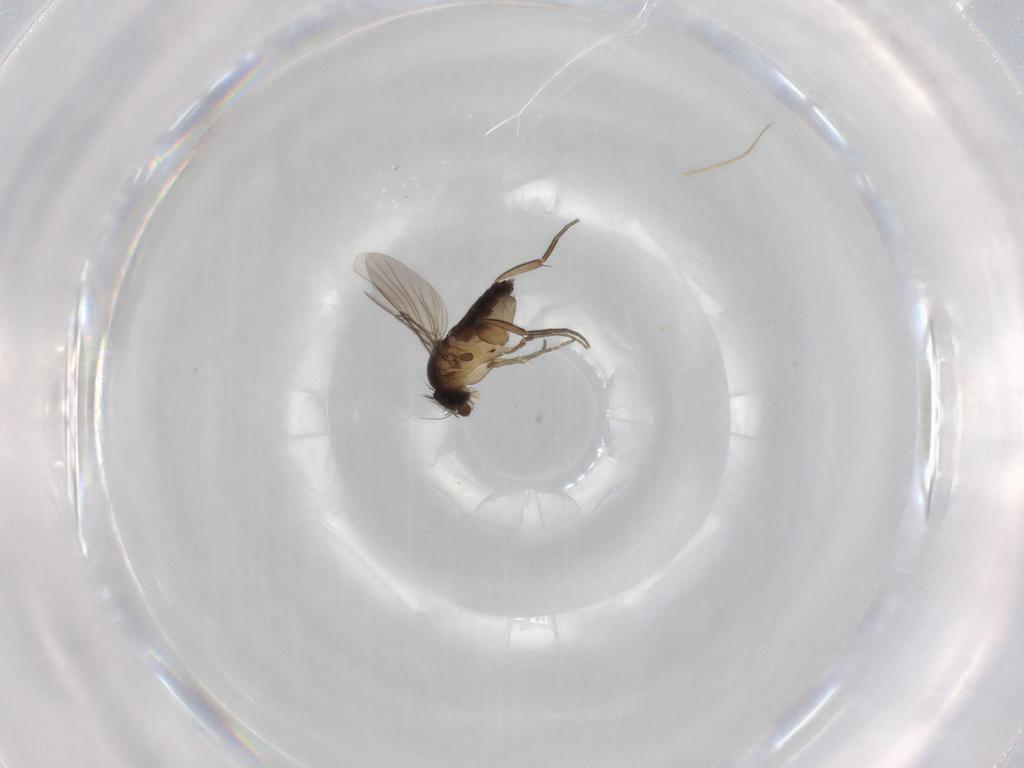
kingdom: Animalia
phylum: Arthropoda
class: Insecta
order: Diptera
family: Phoridae
